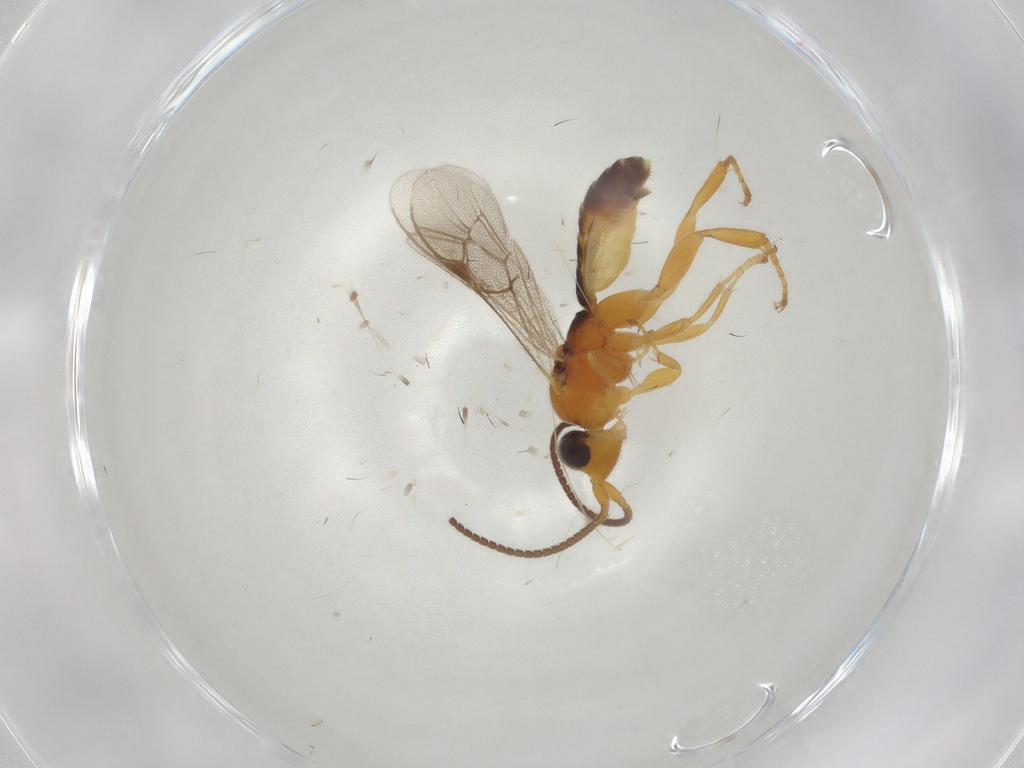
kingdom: Animalia
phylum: Arthropoda
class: Insecta
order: Hymenoptera
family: Ichneumonidae
